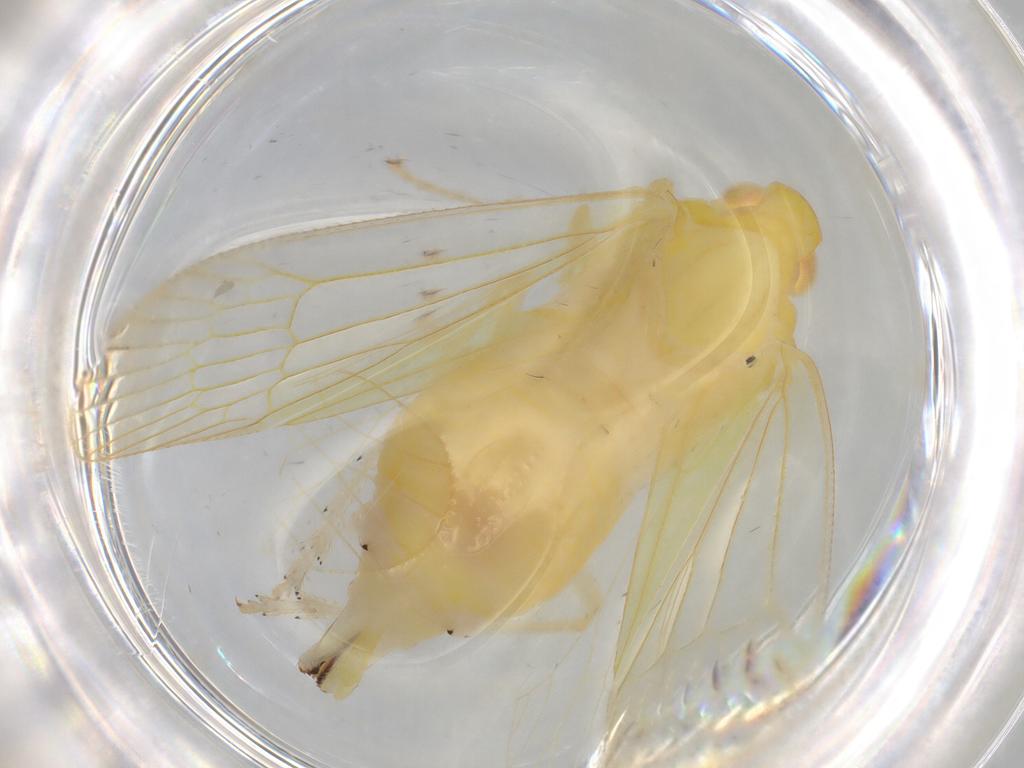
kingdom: Animalia
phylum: Arthropoda
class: Insecta
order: Hemiptera
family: Tropiduchidae
